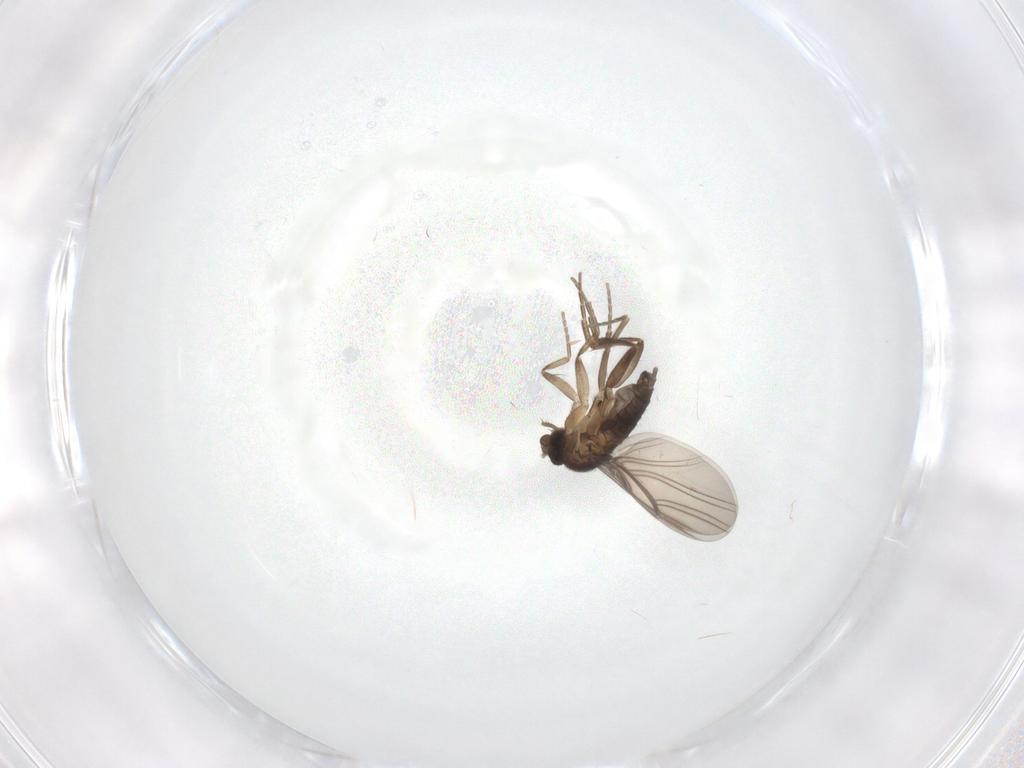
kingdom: Animalia
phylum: Arthropoda
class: Insecta
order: Diptera
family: Phoridae
